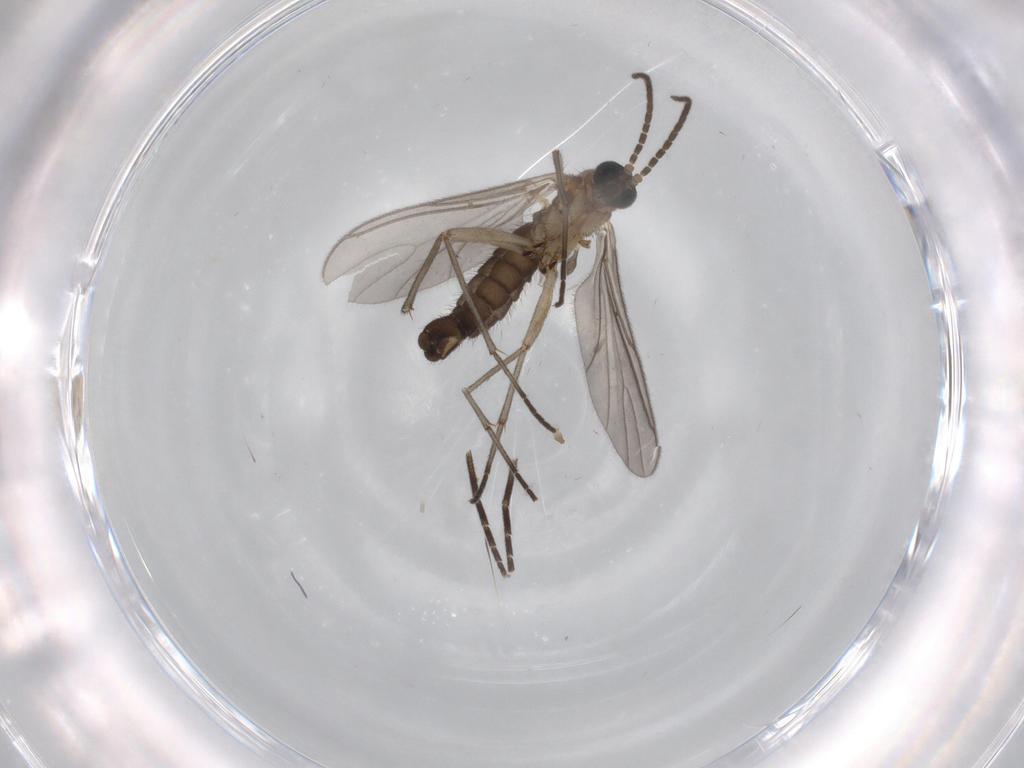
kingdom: Animalia
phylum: Arthropoda
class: Insecta
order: Diptera
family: Sciaridae
